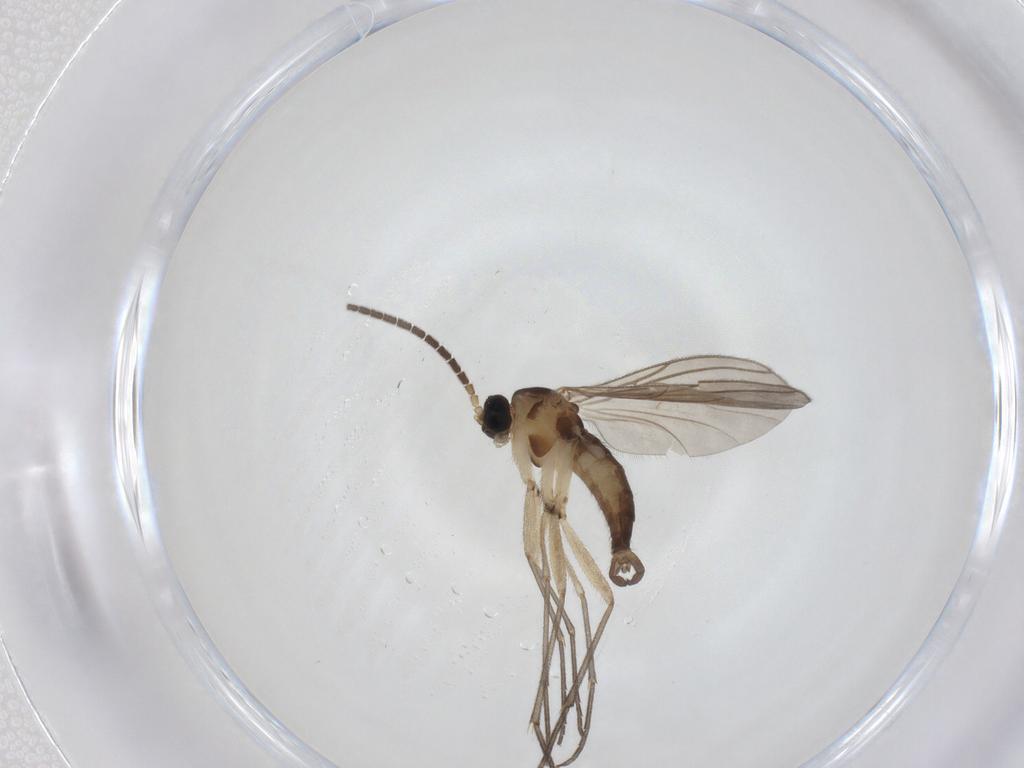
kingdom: Animalia
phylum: Arthropoda
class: Insecta
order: Diptera
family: Sciaridae
